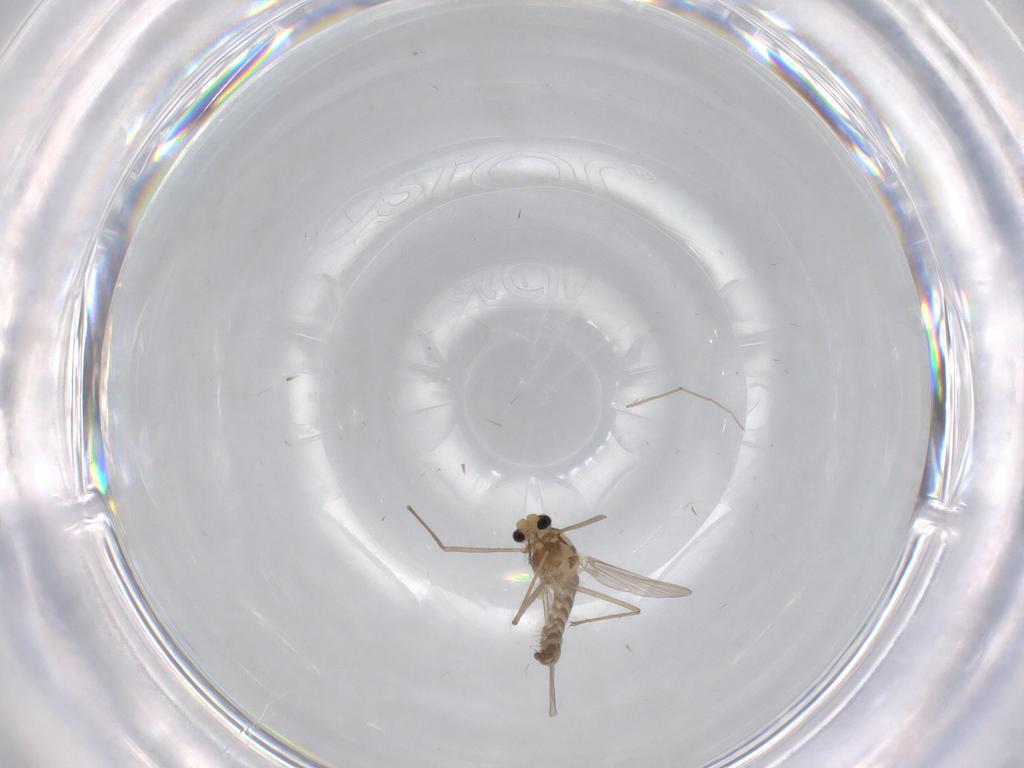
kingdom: Animalia
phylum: Arthropoda
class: Insecta
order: Diptera
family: Chironomidae
